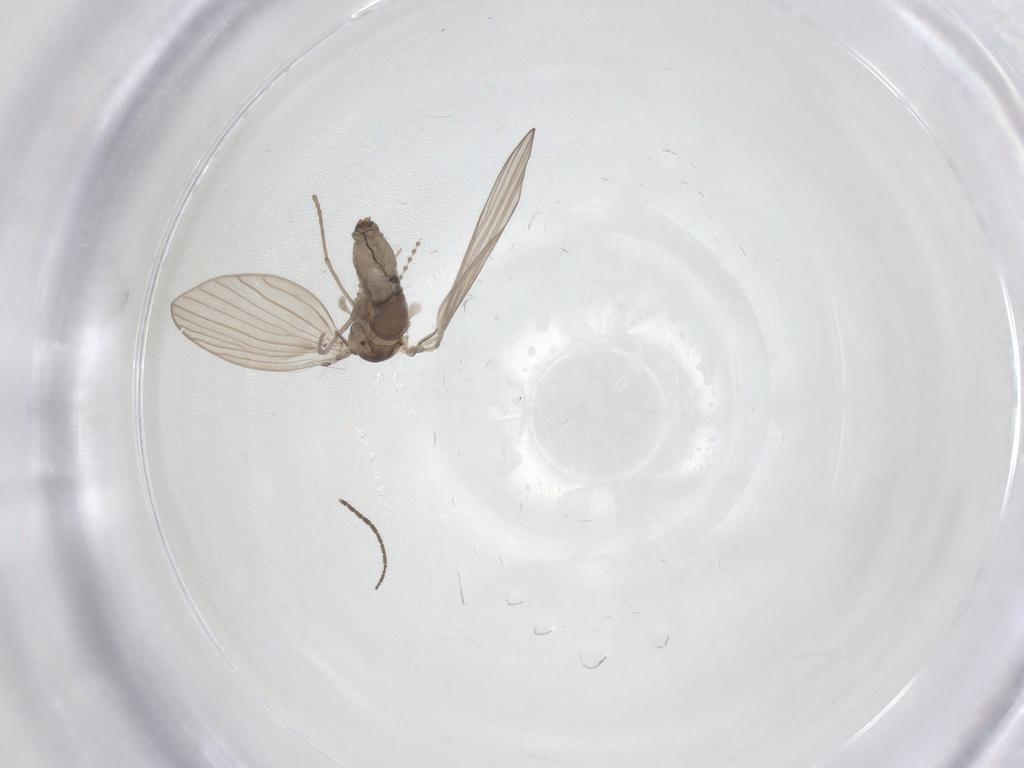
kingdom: Animalia
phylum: Arthropoda
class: Insecta
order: Diptera
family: Psychodidae
